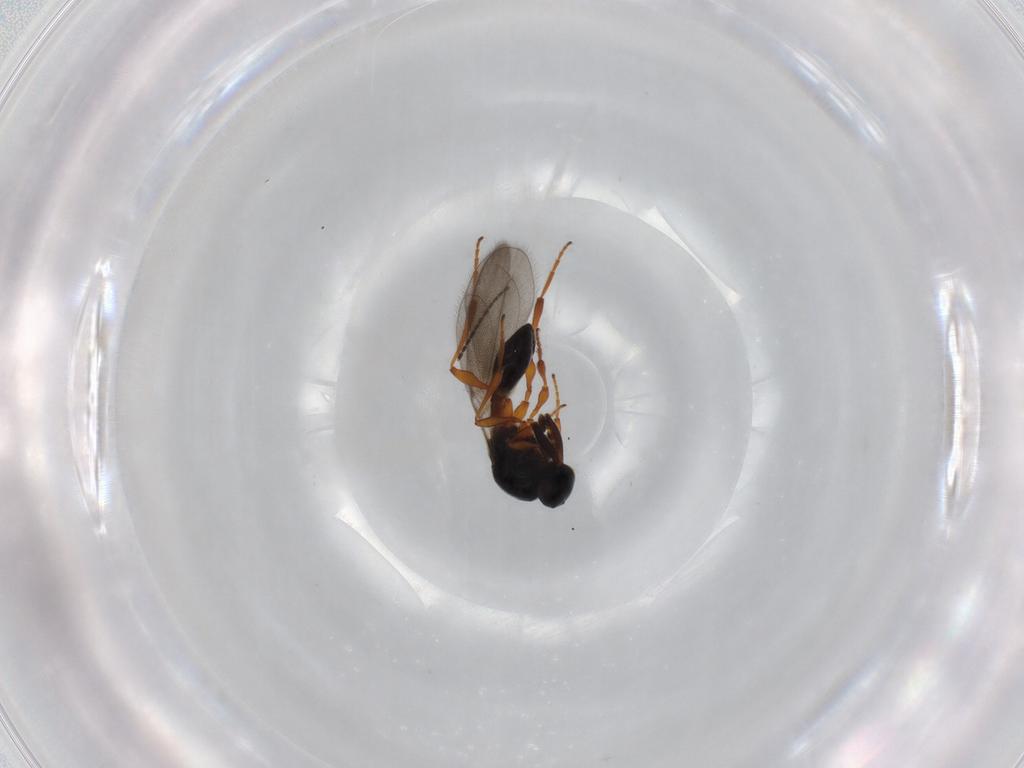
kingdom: Animalia
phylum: Arthropoda
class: Insecta
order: Hymenoptera
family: Platygastridae
